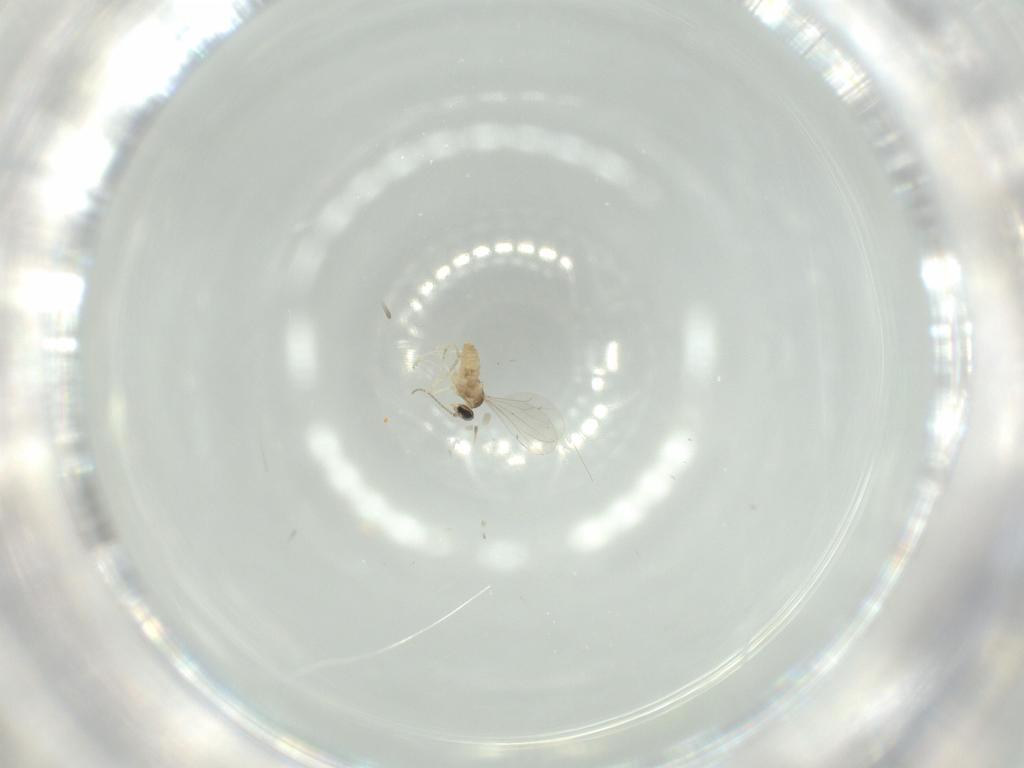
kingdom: Animalia
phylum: Arthropoda
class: Insecta
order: Diptera
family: Cecidomyiidae
